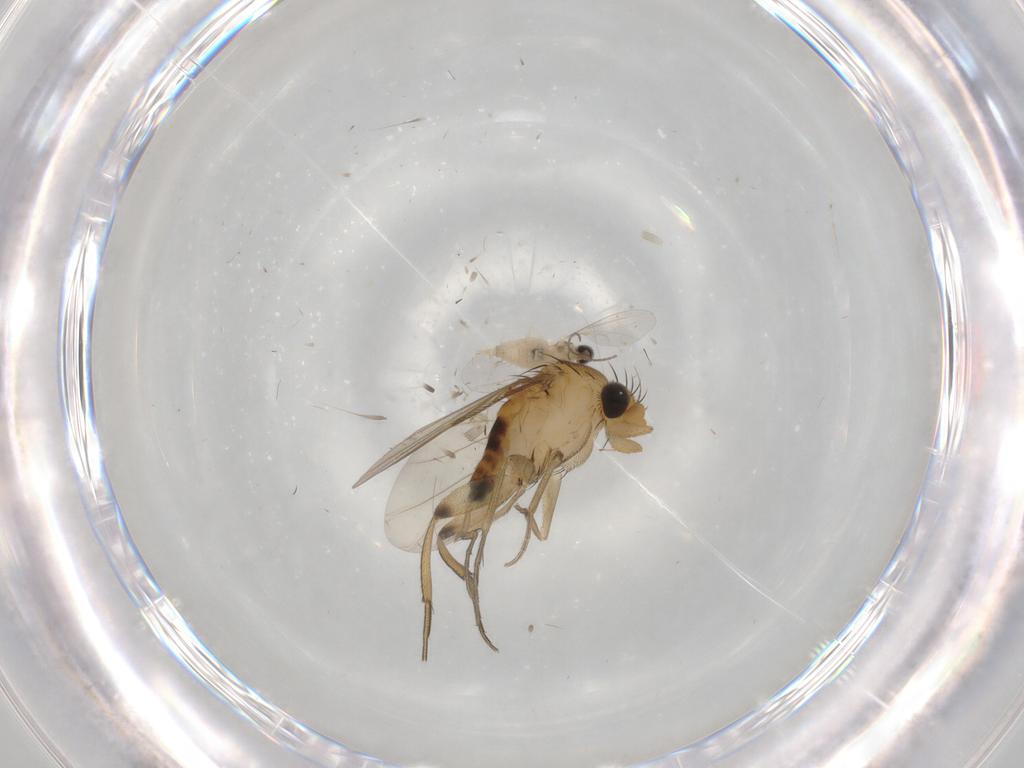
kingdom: Animalia
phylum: Arthropoda
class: Insecta
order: Diptera
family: Phoridae
